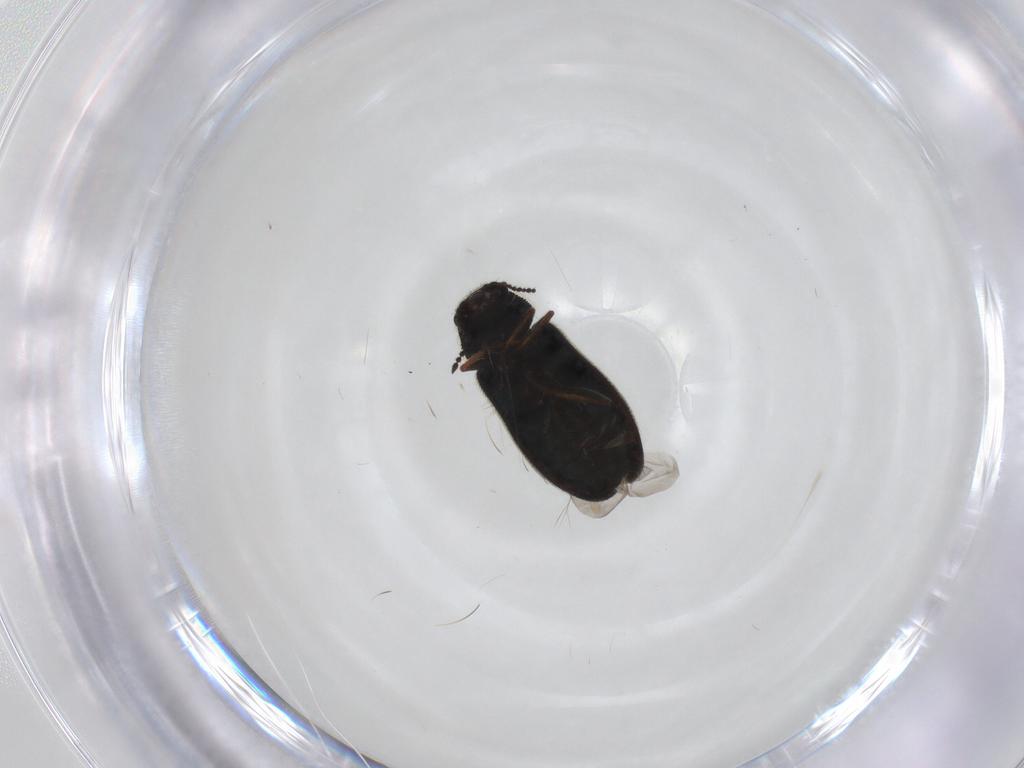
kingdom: Animalia
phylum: Arthropoda
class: Insecta
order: Coleoptera
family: Melyridae
